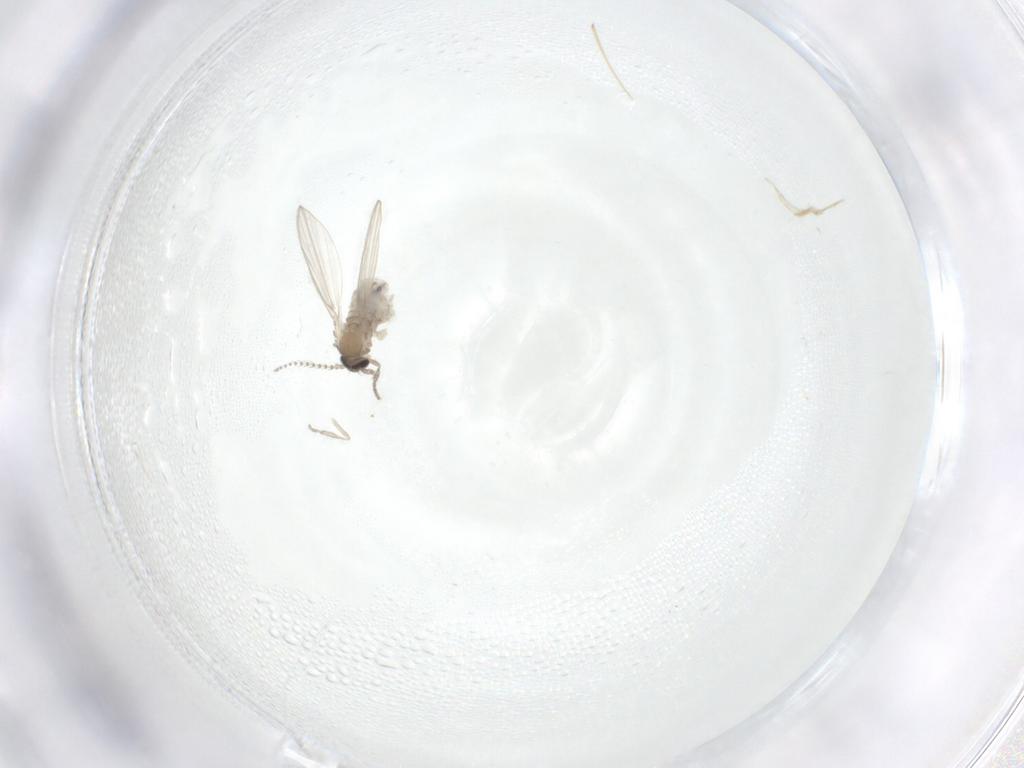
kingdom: Animalia
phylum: Arthropoda
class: Insecta
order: Diptera
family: Psychodidae
